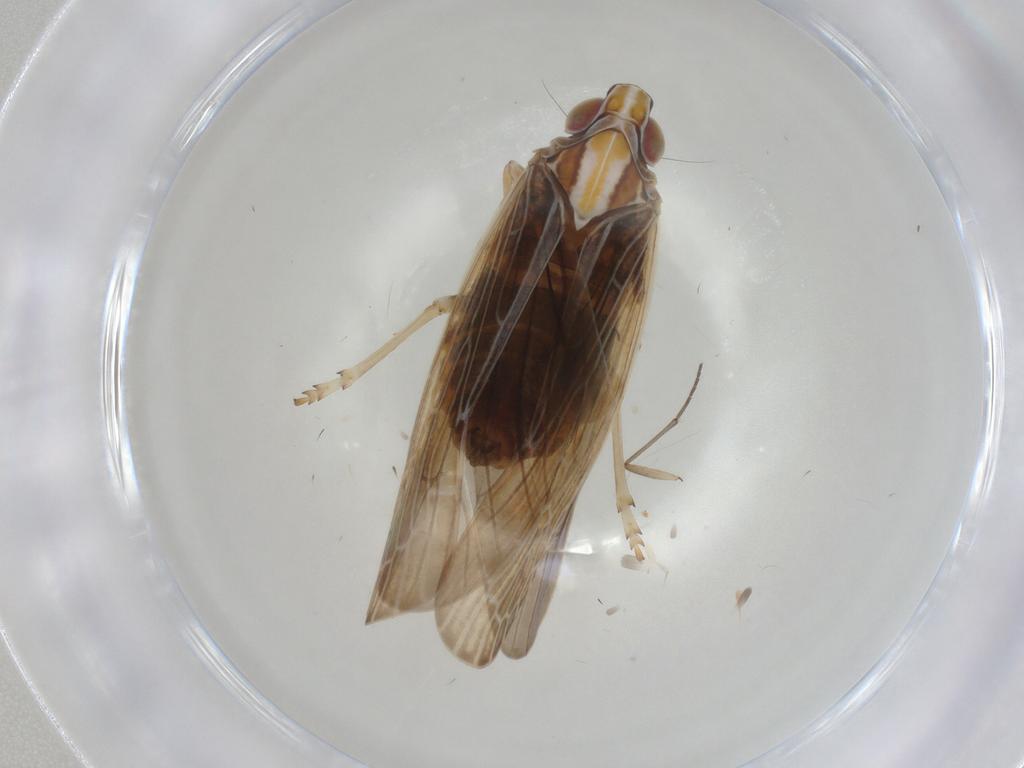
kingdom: Animalia
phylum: Arthropoda
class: Insecta
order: Hemiptera
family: Achilidae
